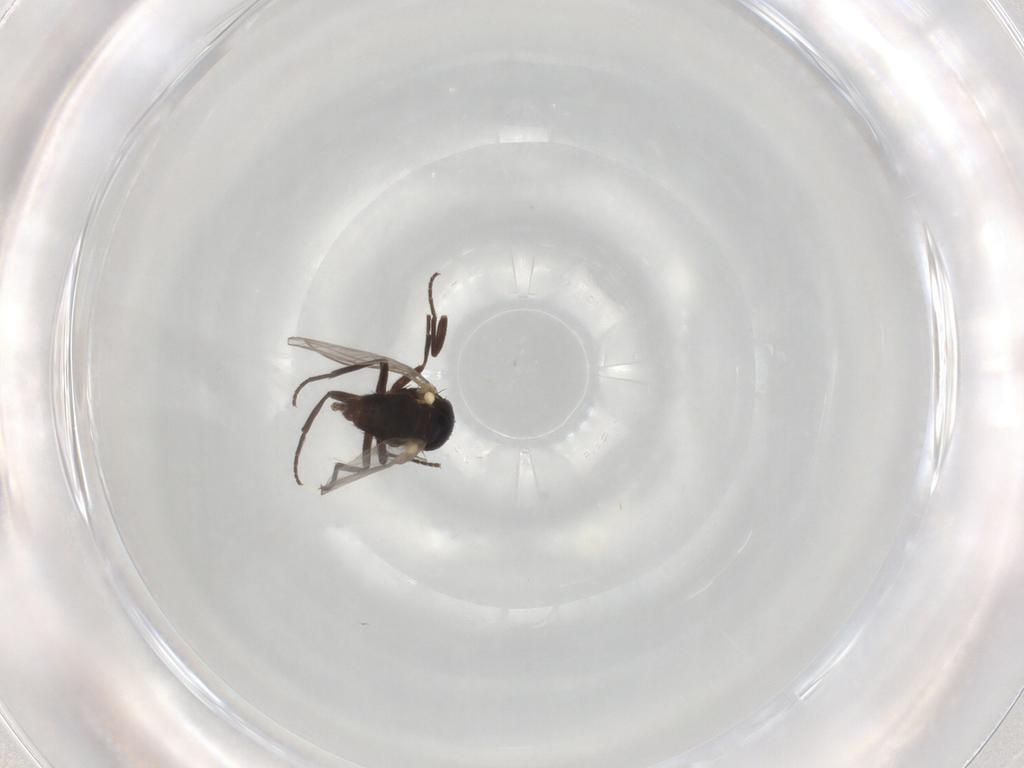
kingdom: Animalia
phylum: Arthropoda
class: Insecta
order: Diptera
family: Agromyzidae
